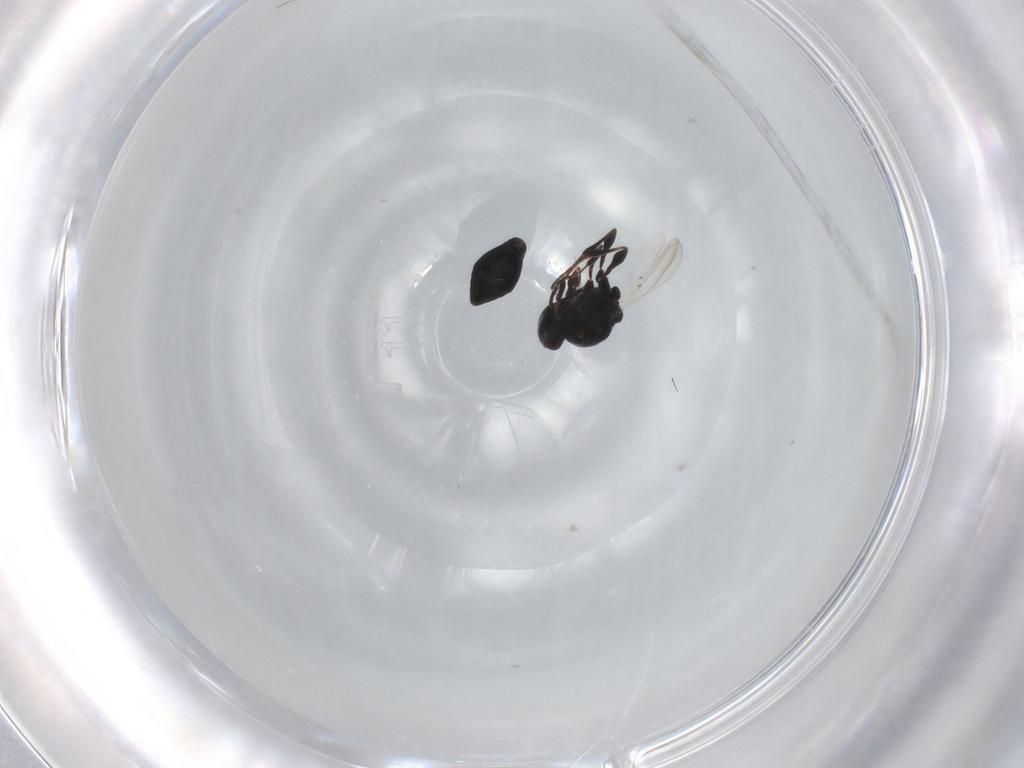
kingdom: Animalia
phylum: Arthropoda
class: Insecta
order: Hymenoptera
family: Platygastridae
